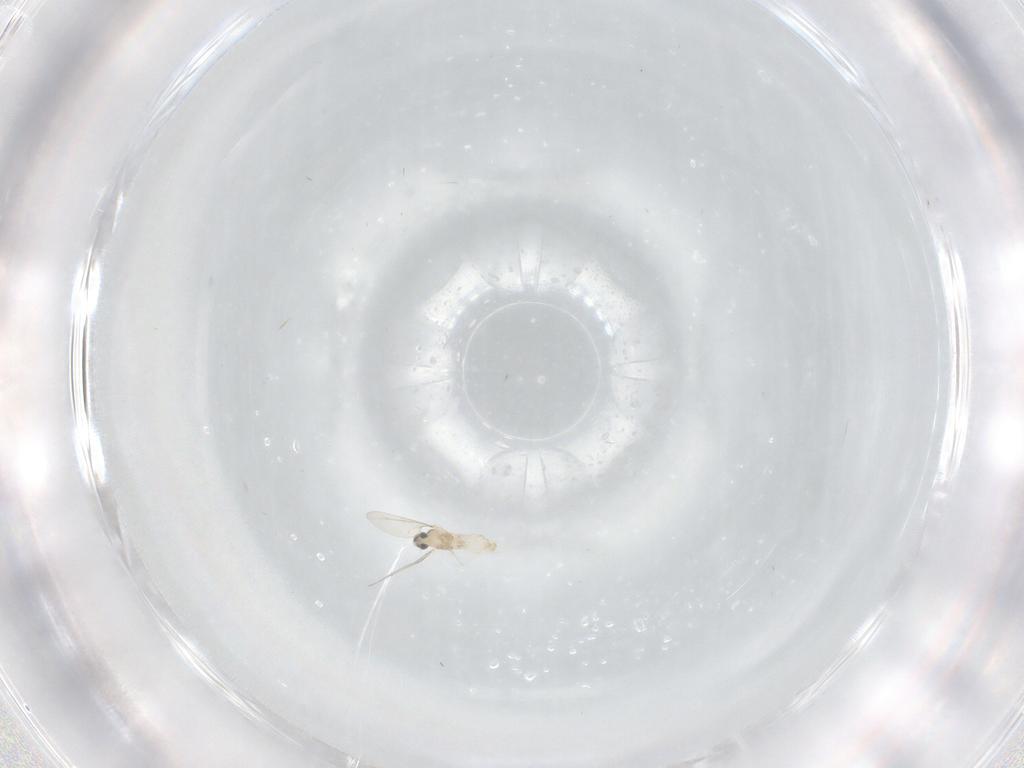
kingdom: Animalia
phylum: Arthropoda
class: Insecta
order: Diptera
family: Cecidomyiidae
